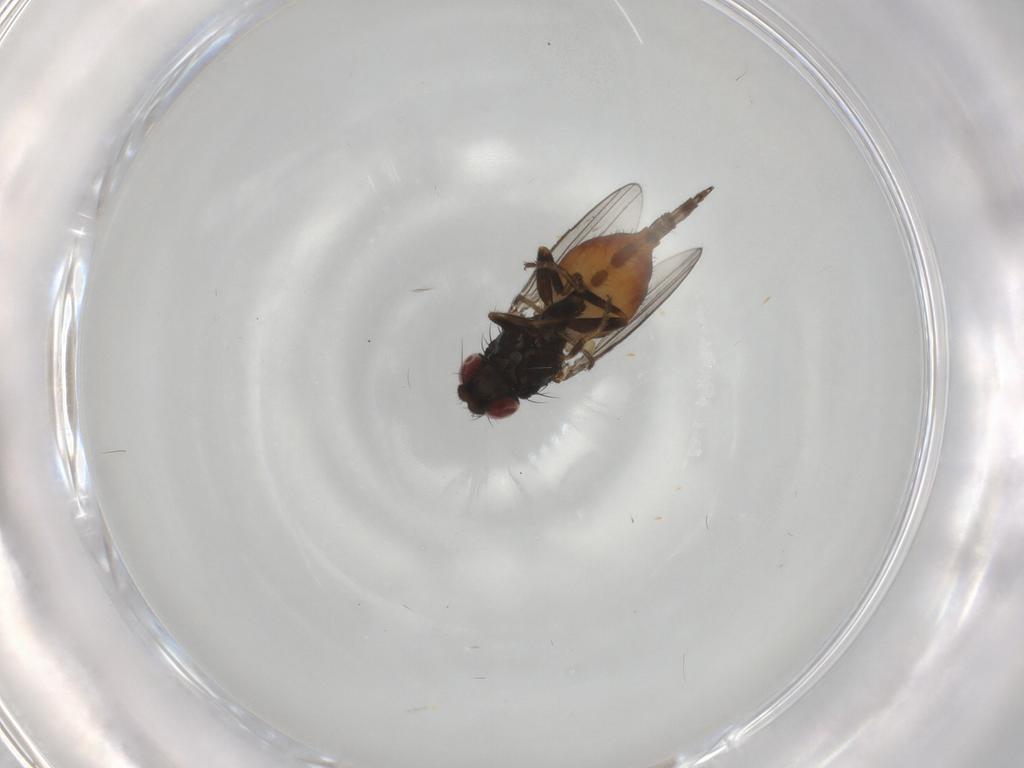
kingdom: Animalia
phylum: Arthropoda
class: Insecta
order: Diptera
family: Milichiidae
